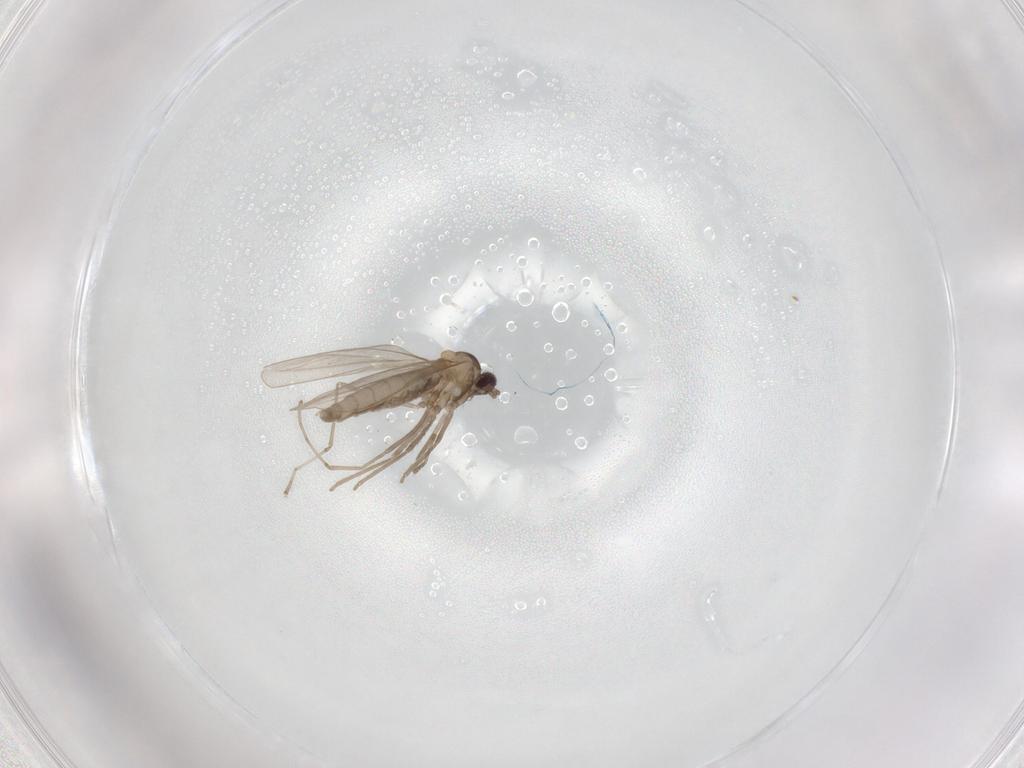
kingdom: Animalia
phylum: Arthropoda
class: Insecta
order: Diptera
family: Cecidomyiidae
